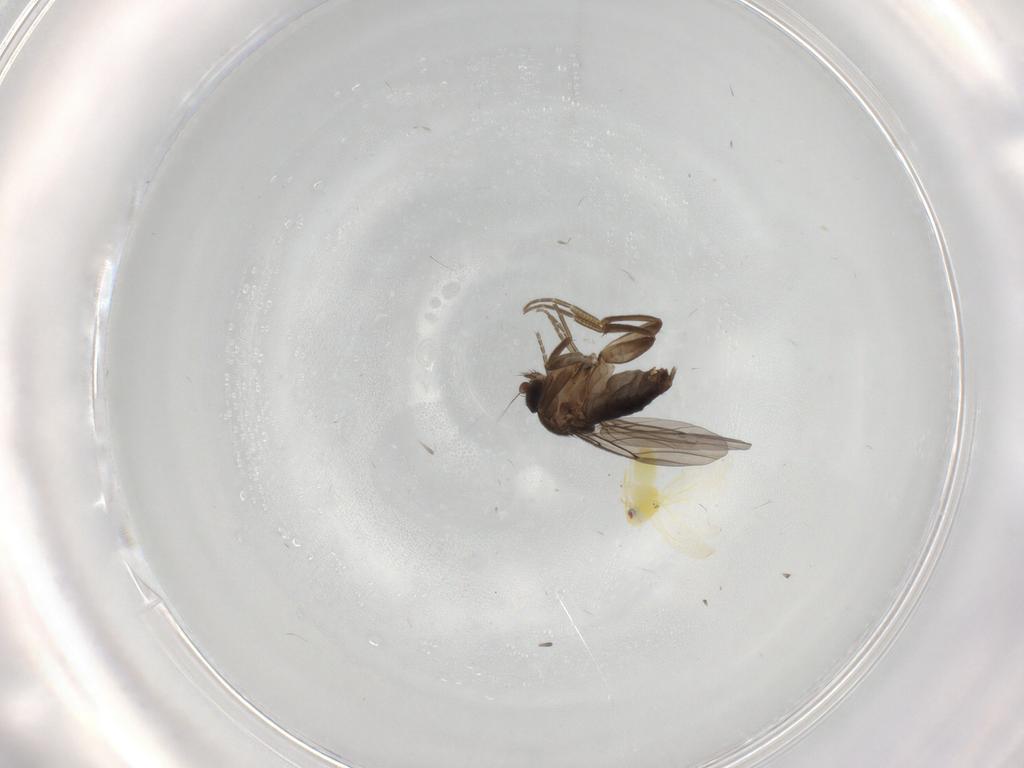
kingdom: Animalia
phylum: Arthropoda
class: Insecta
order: Diptera
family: Phoridae
